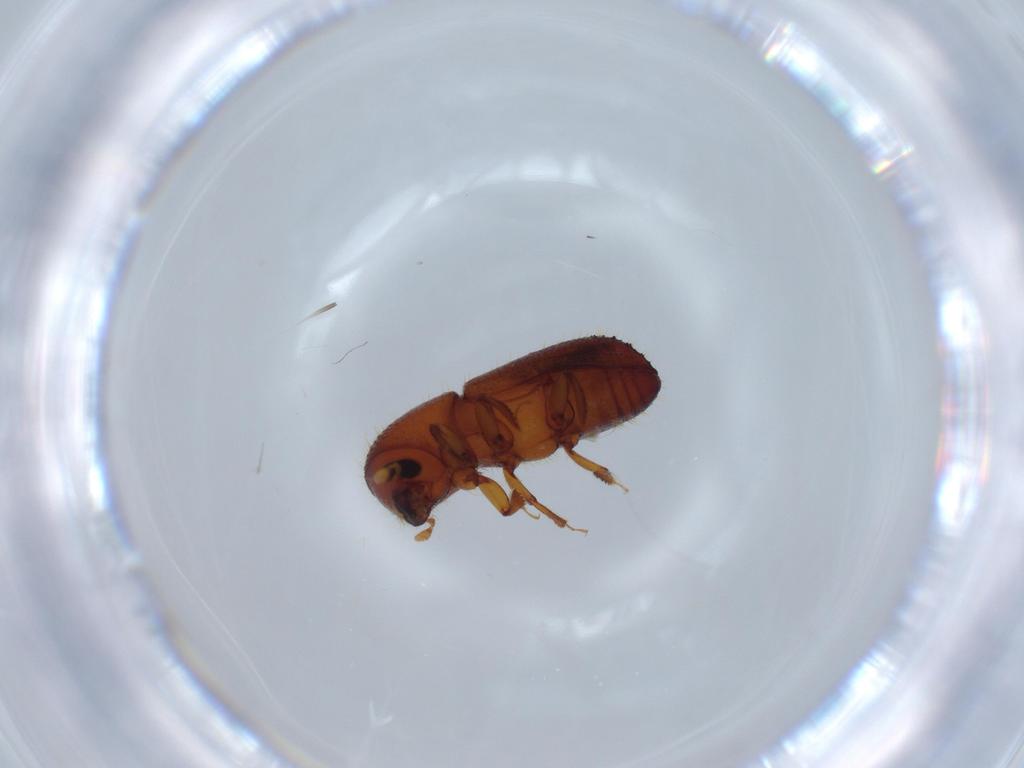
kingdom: Animalia
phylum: Arthropoda
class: Insecta
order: Coleoptera
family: Curculionidae
